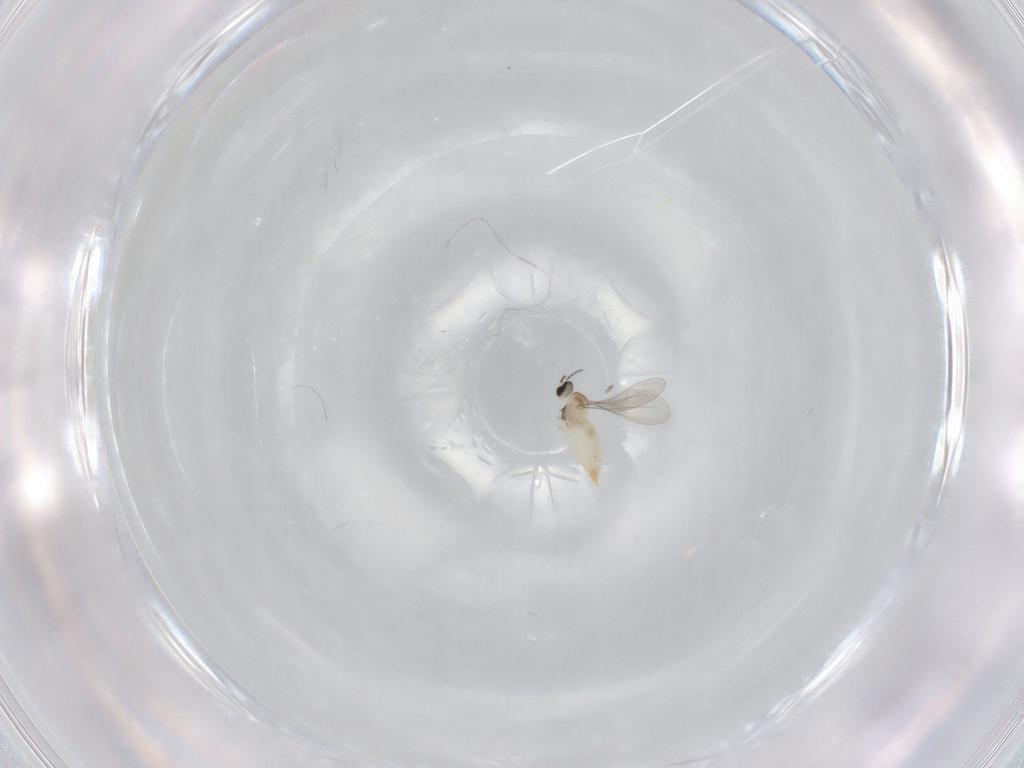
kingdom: Animalia
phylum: Arthropoda
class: Insecta
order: Diptera
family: Cecidomyiidae
